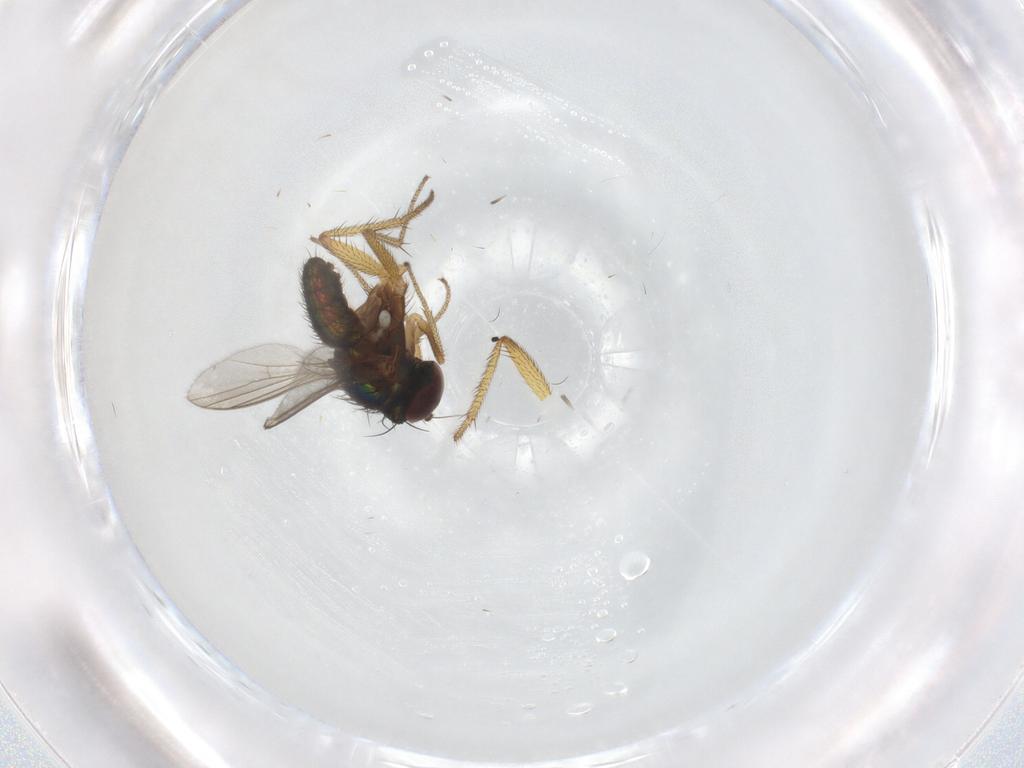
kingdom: Animalia
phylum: Arthropoda
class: Insecta
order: Diptera
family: Dolichopodidae
